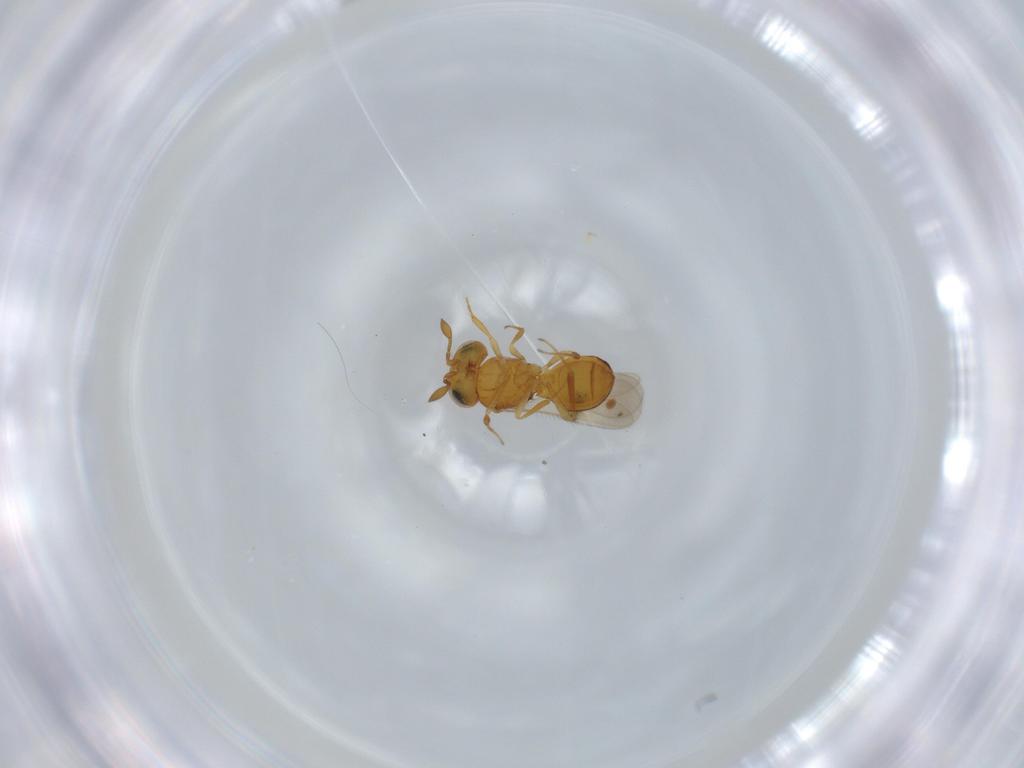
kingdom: Animalia
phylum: Arthropoda
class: Insecta
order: Hymenoptera
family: Scelionidae
